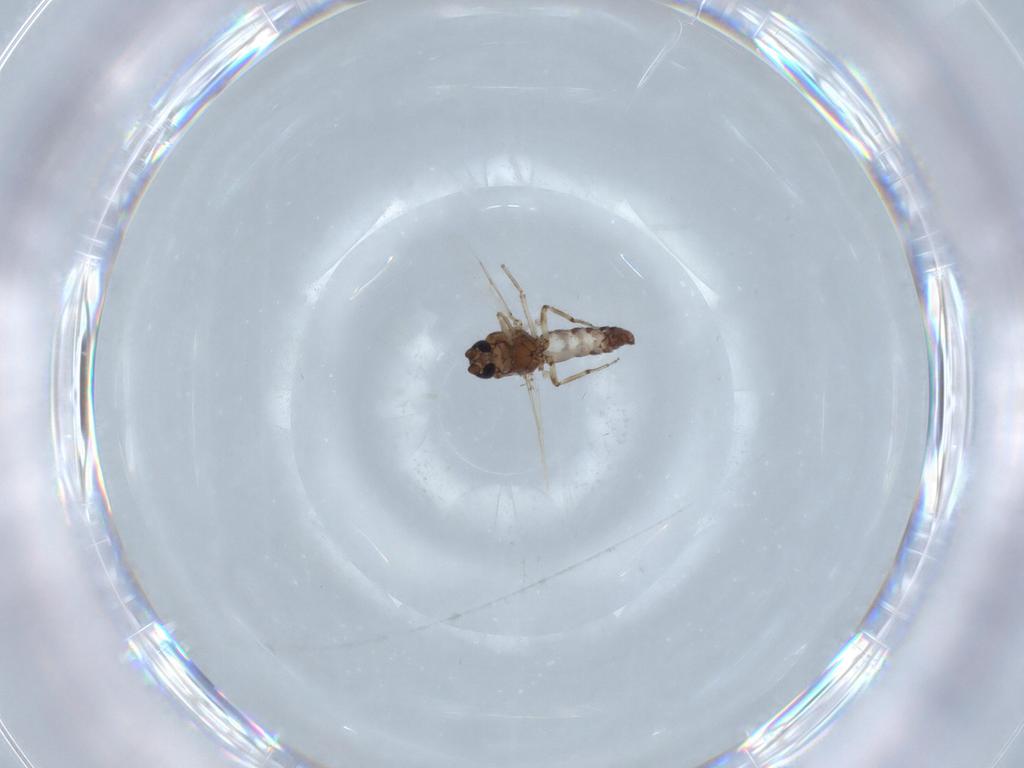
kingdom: Animalia
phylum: Arthropoda
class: Insecta
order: Diptera
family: Ceratopogonidae
